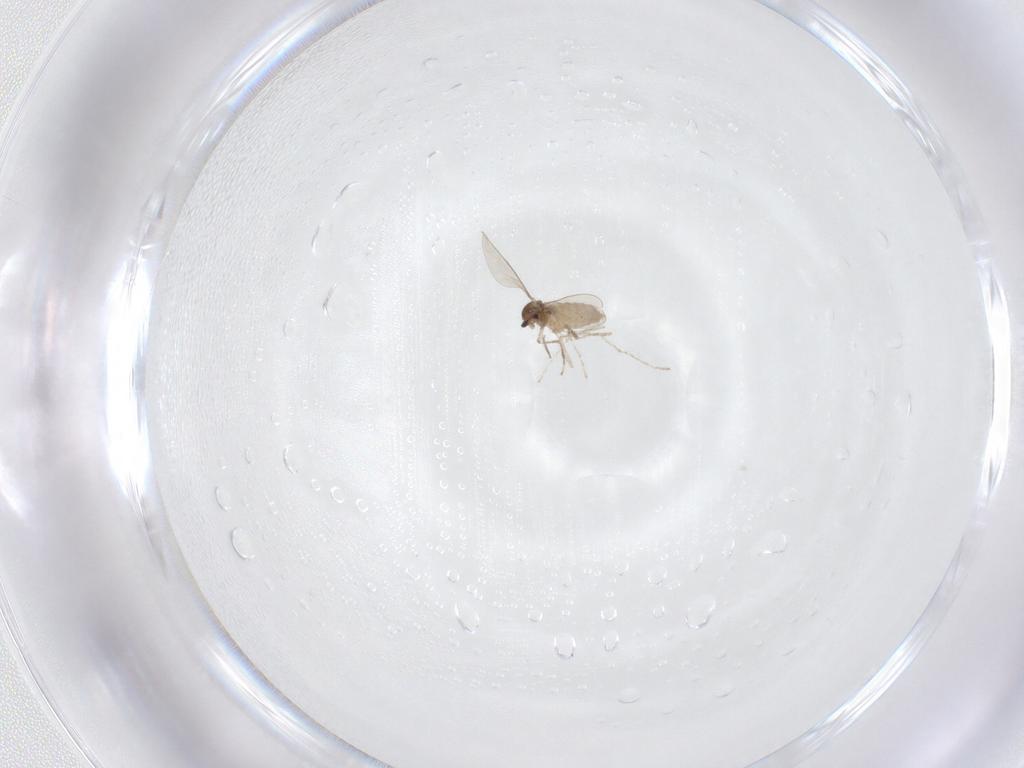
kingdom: Animalia
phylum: Arthropoda
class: Insecta
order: Diptera
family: Cecidomyiidae
